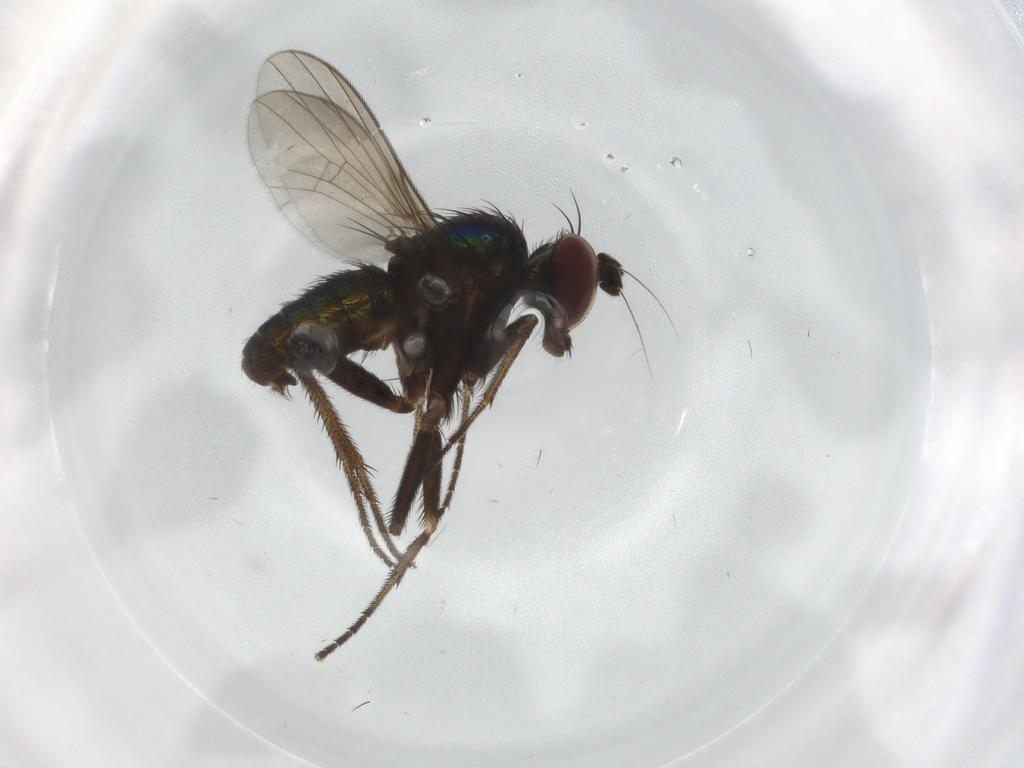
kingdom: Animalia
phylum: Arthropoda
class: Insecta
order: Diptera
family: Dolichopodidae
